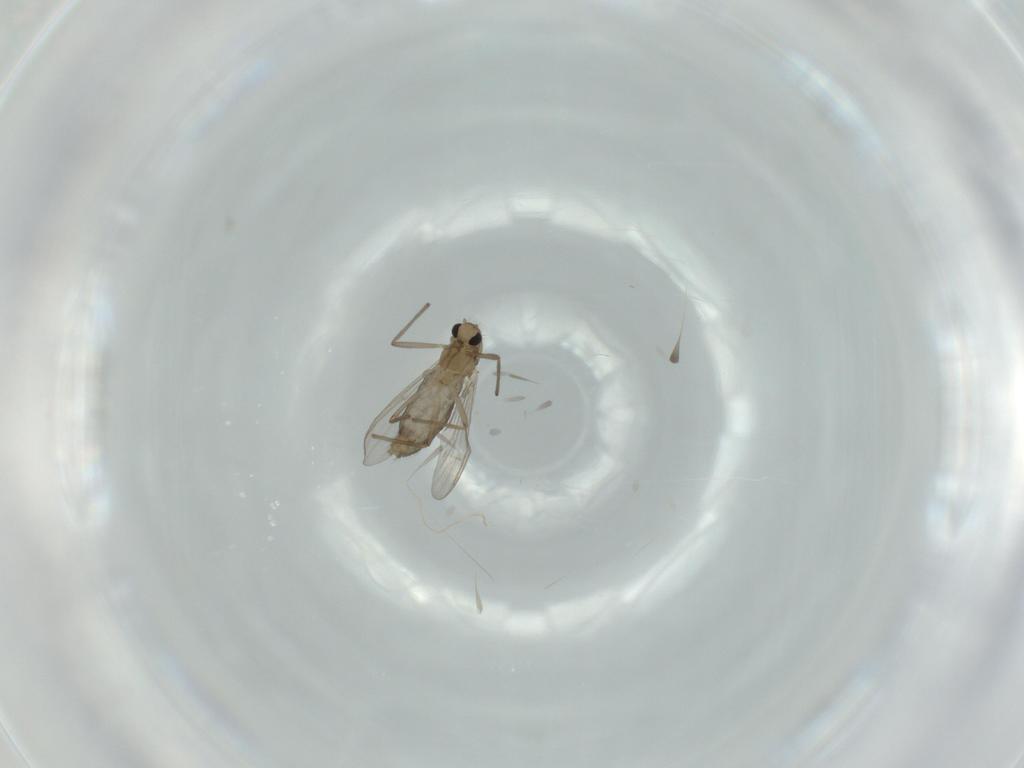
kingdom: Animalia
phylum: Arthropoda
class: Insecta
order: Diptera
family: Chironomidae
